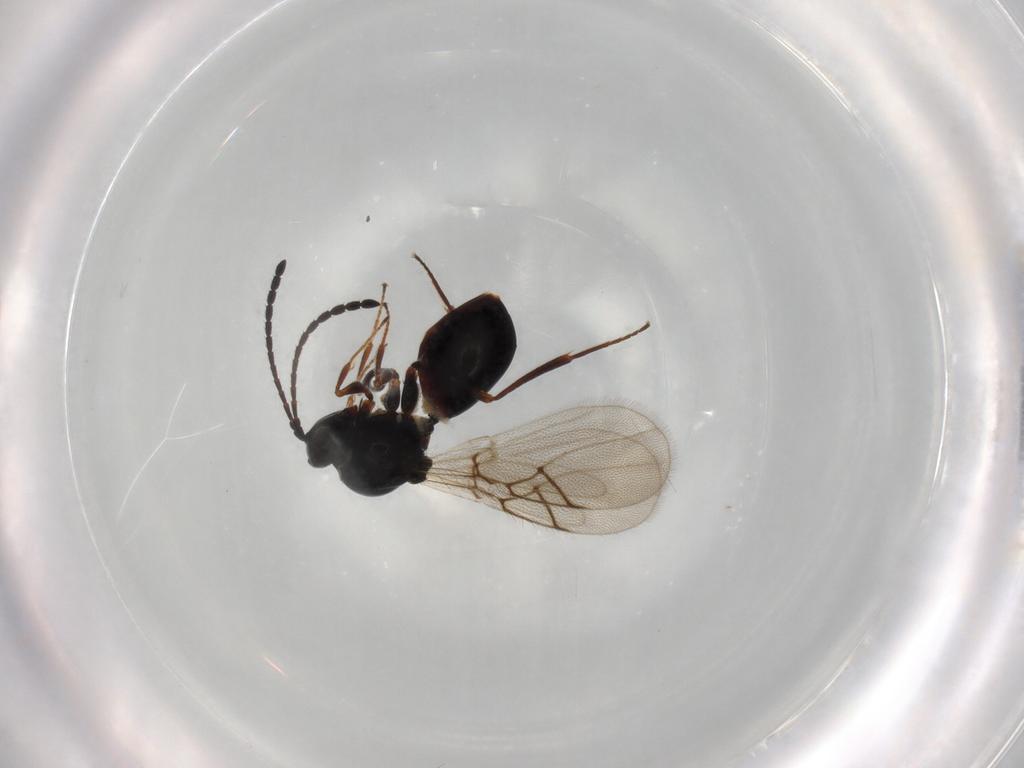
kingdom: Animalia
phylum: Arthropoda
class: Insecta
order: Hymenoptera
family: Figitidae
